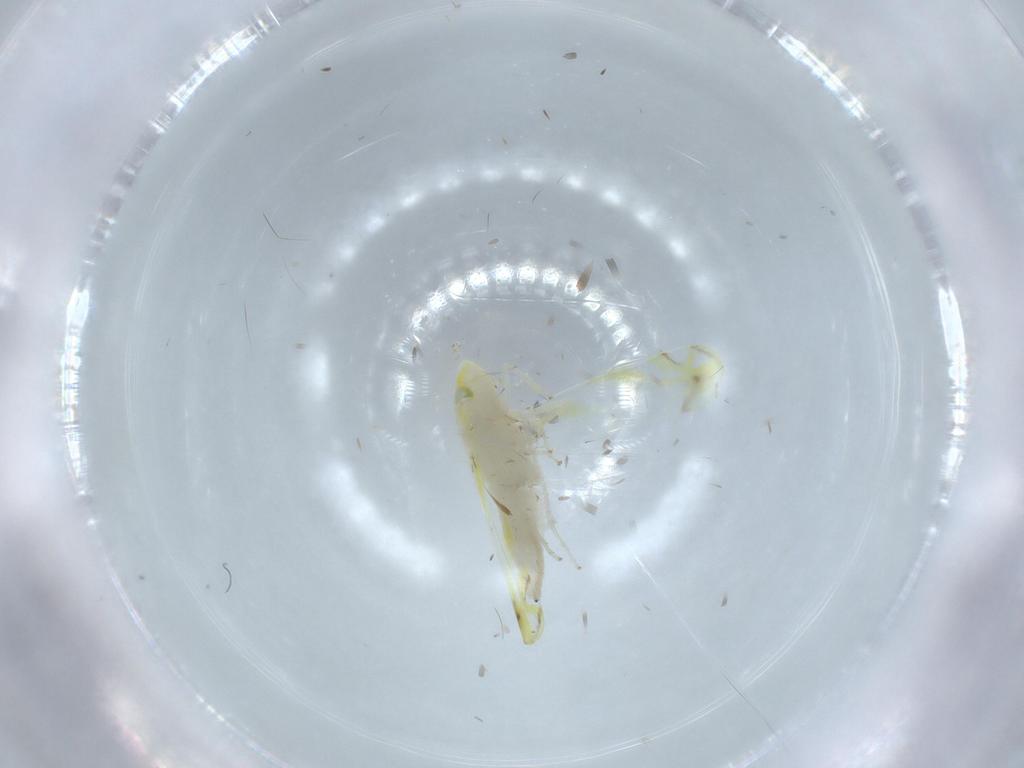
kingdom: Animalia
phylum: Arthropoda
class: Insecta
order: Hemiptera
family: Cicadellidae
